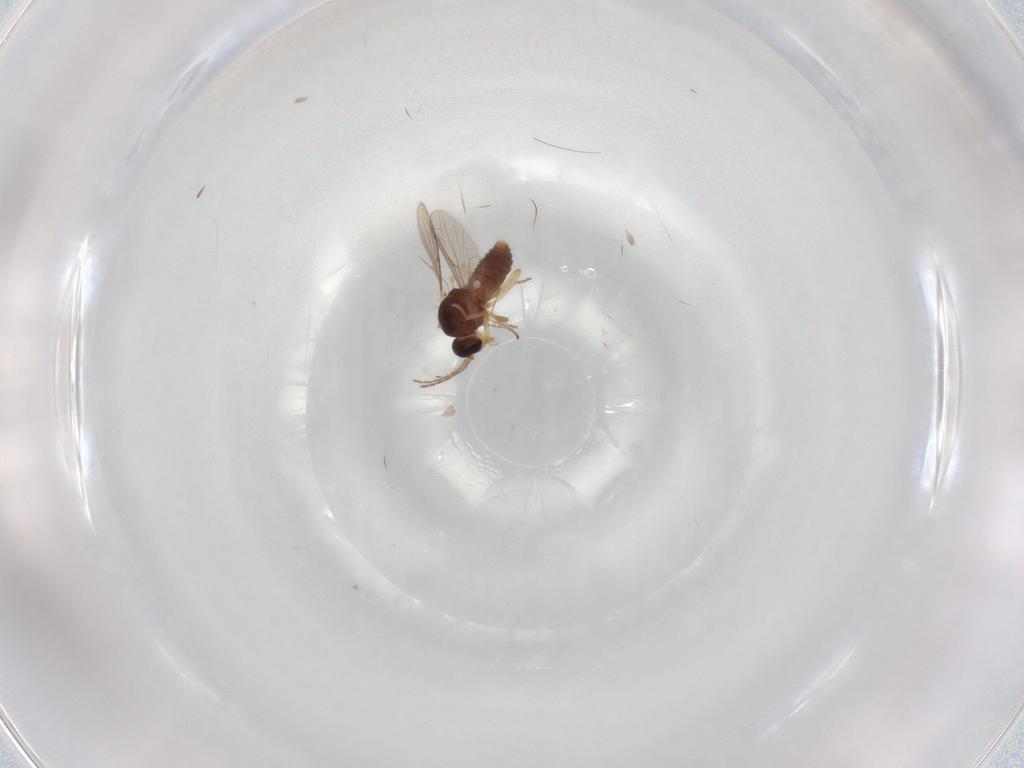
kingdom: Animalia
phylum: Arthropoda
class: Insecta
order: Diptera
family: Ceratopogonidae
